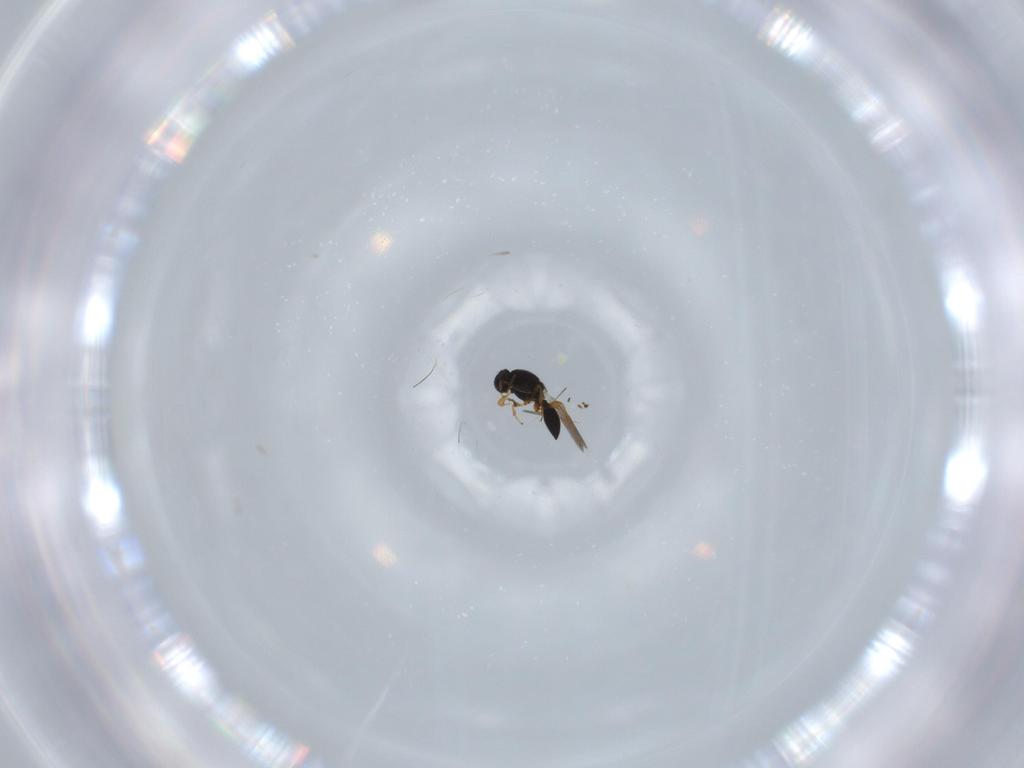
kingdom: Animalia
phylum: Arthropoda
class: Insecta
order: Hymenoptera
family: Platygastridae
